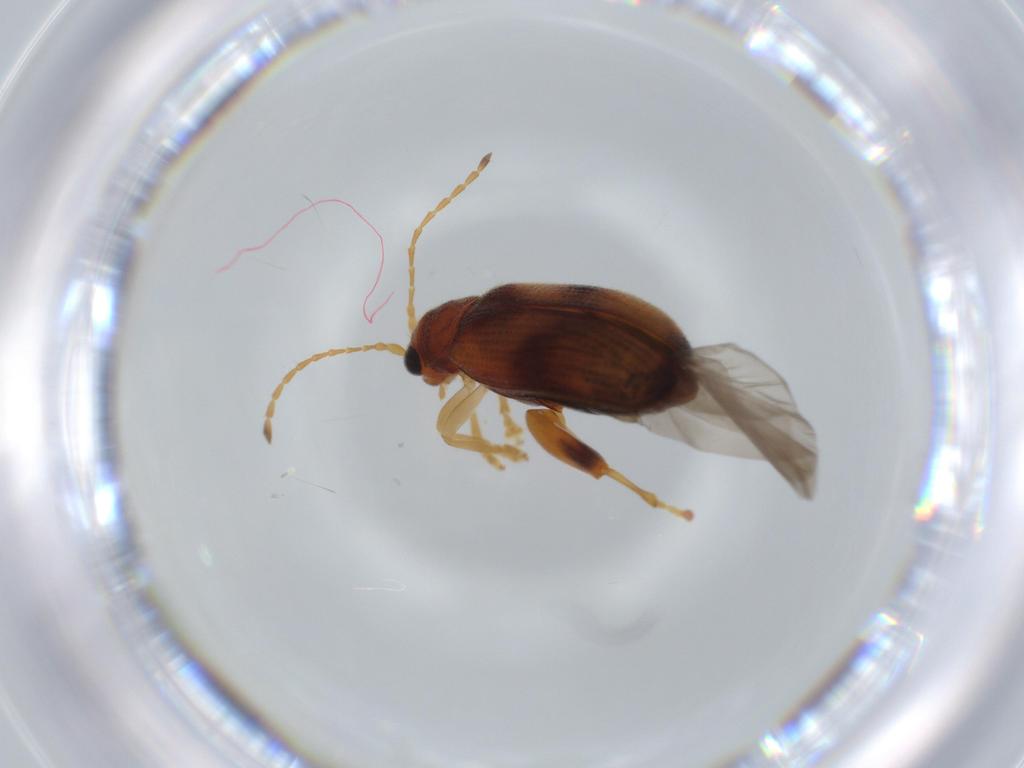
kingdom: Animalia
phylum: Arthropoda
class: Insecta
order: Coleoptera
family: Chrysomelidae
